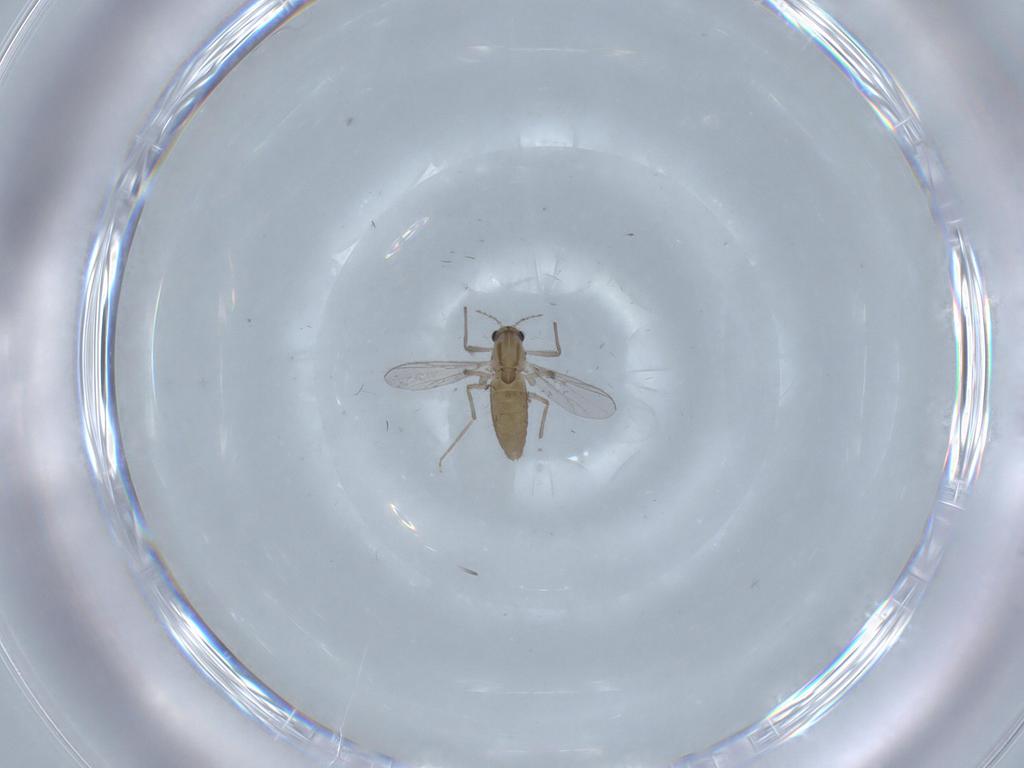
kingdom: Animalia
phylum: Arthropoda
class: Insecta
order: Diptera
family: Chironomidae
